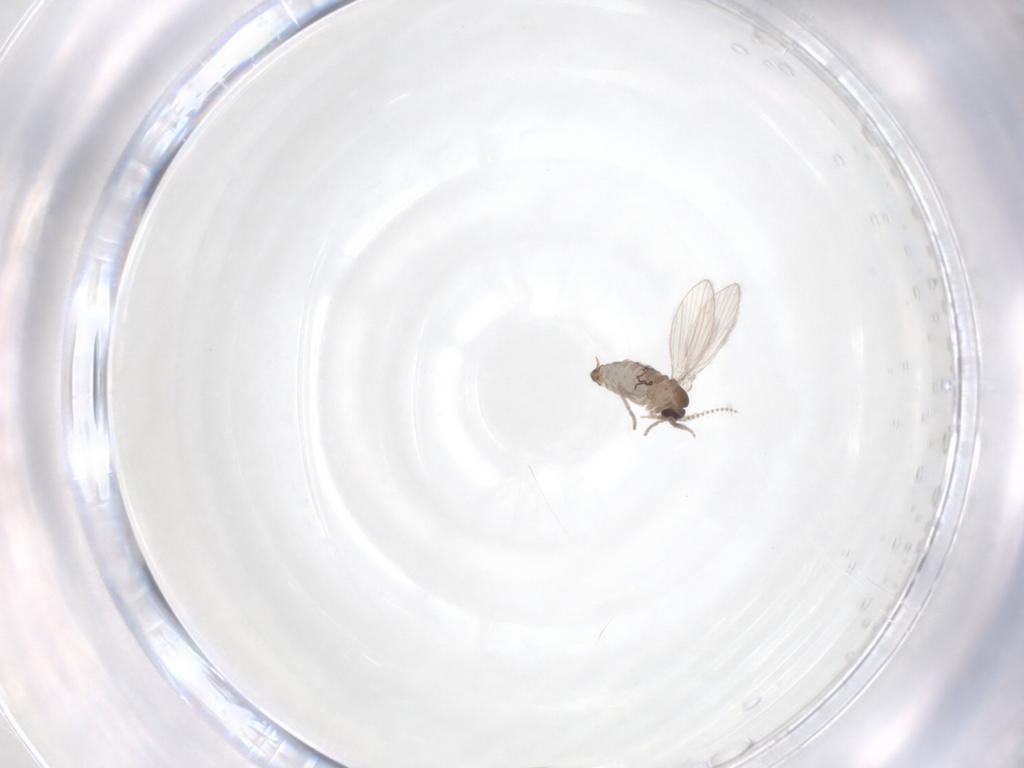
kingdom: Animalia
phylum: Arthropoda
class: Insecta
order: Diptera
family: Psychodidae
